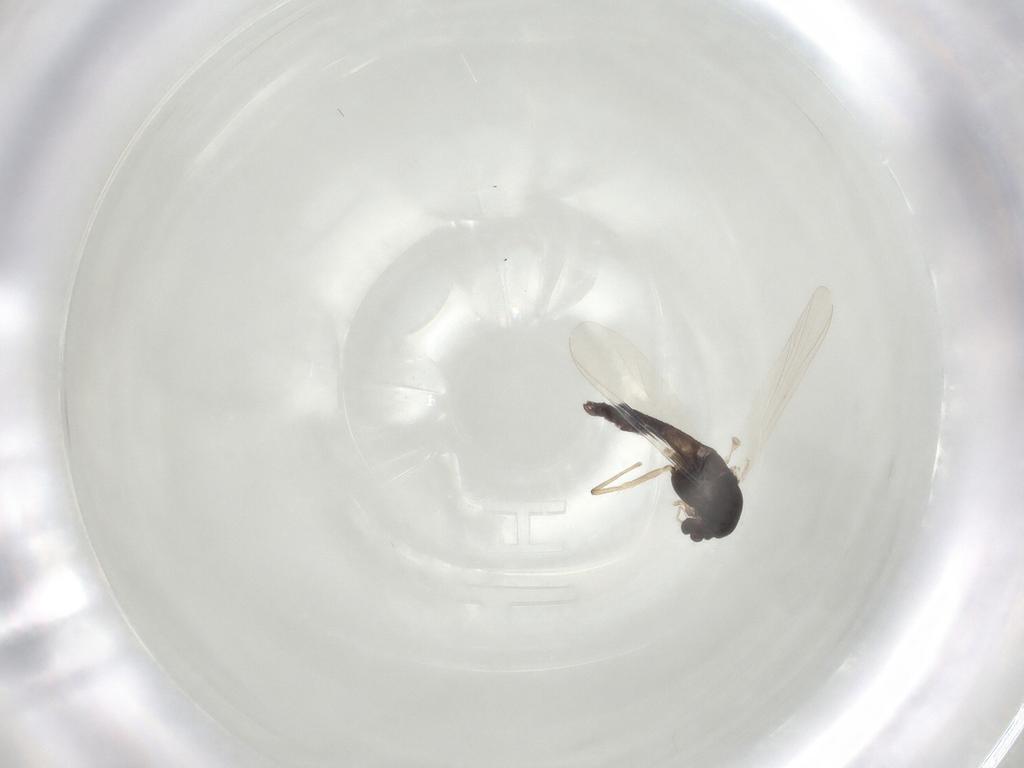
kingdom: Animalia
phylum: Arthropoda
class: Insecta
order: Diptera
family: Chironomidae
